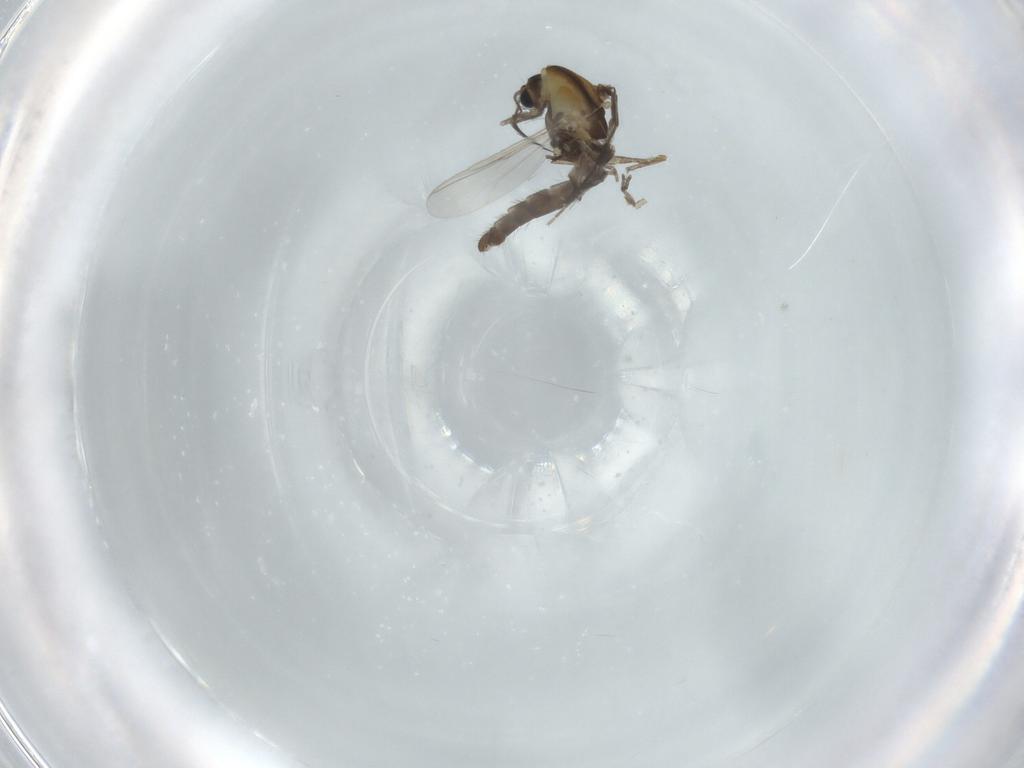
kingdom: Animalia
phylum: Arthropoda
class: Insecta
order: Diptera
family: Chironomidae
